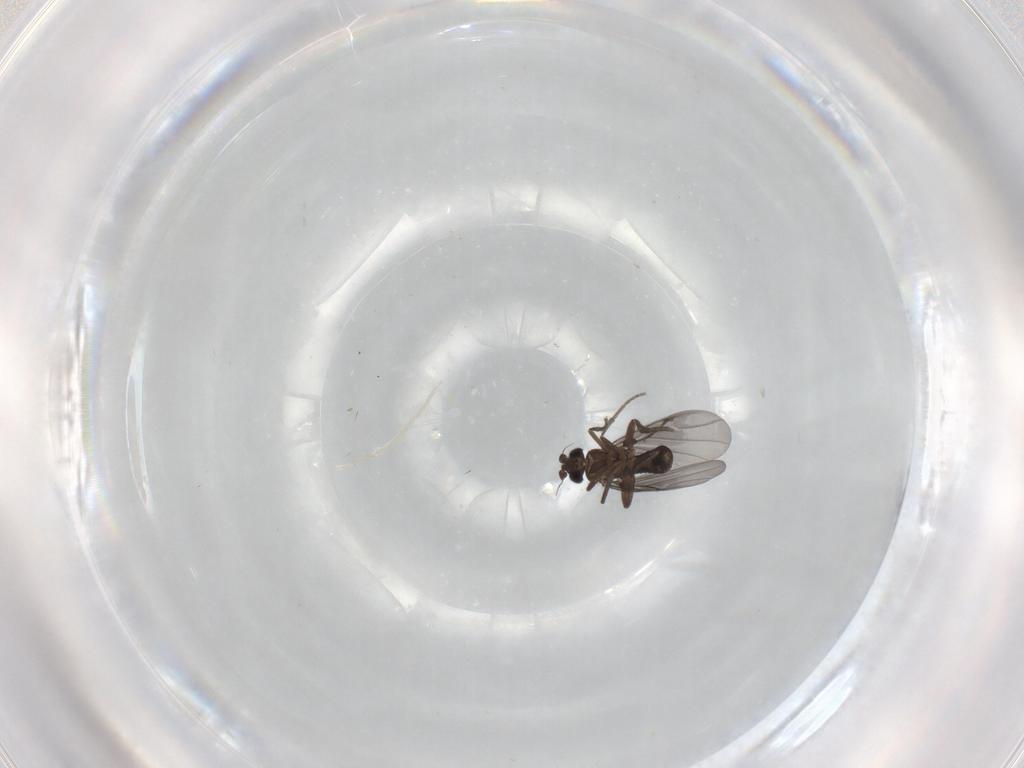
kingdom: Animalia
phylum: Arthropoda
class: Insecta
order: Diptera
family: Phoridae
